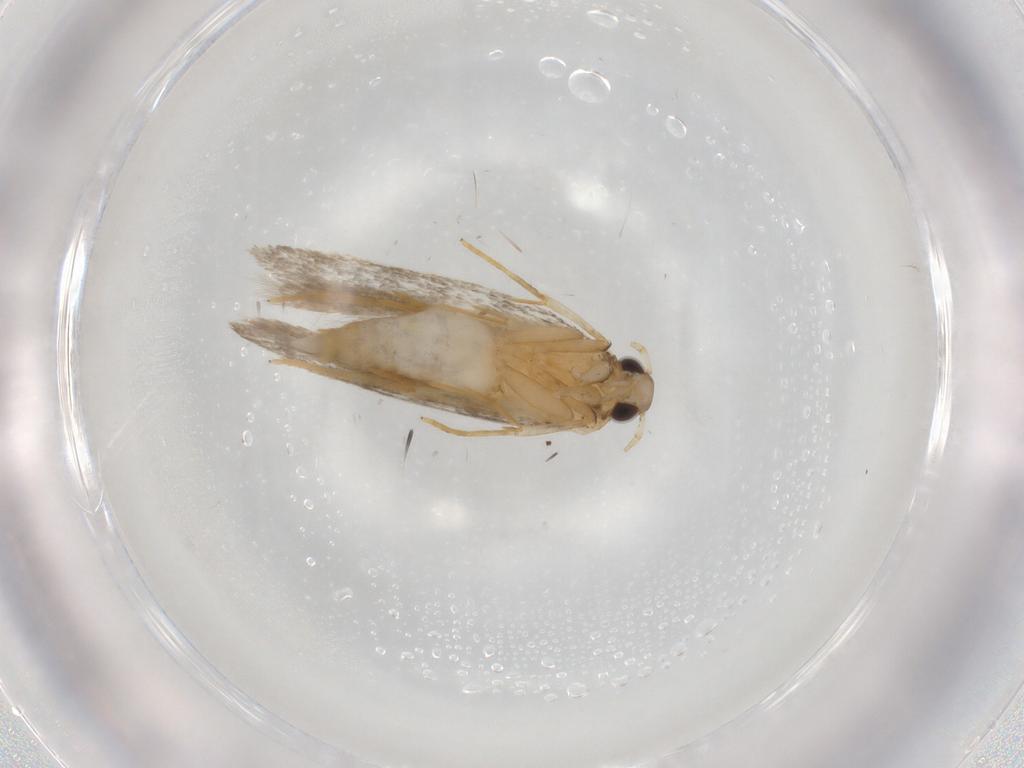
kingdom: Animalia
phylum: Arthropoda
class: Insecta
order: Lepidoptera
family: Autostichidae
